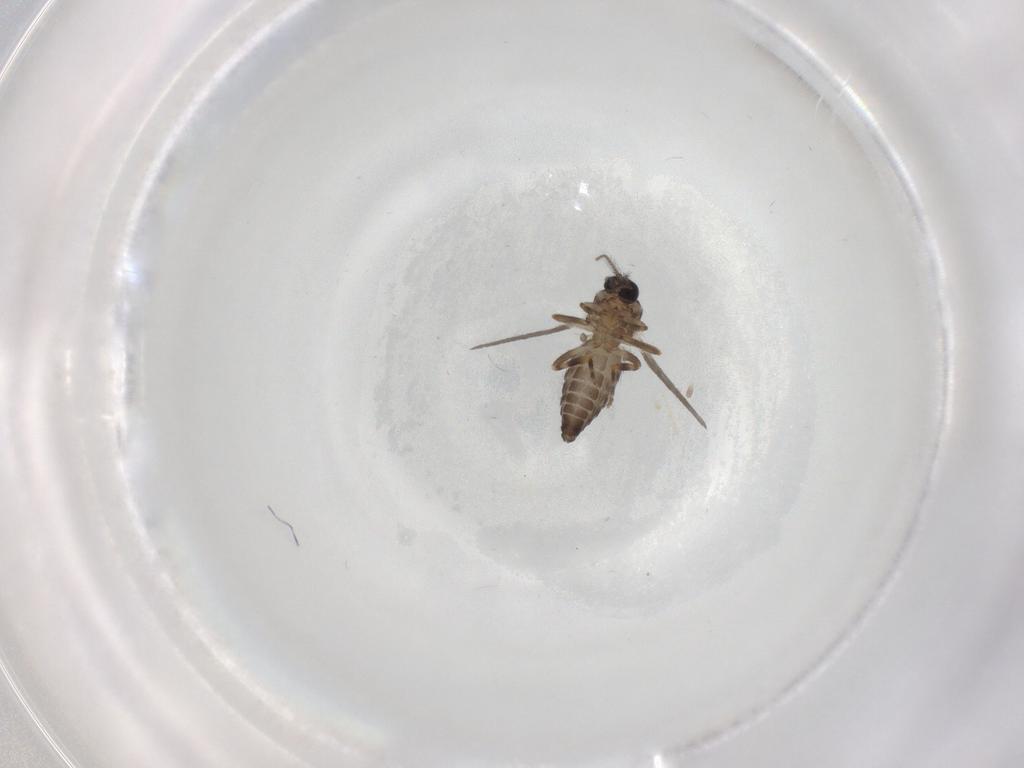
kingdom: Animalia
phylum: Arthropoda
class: Insecta
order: Diptera
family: Ceratopogonidae
